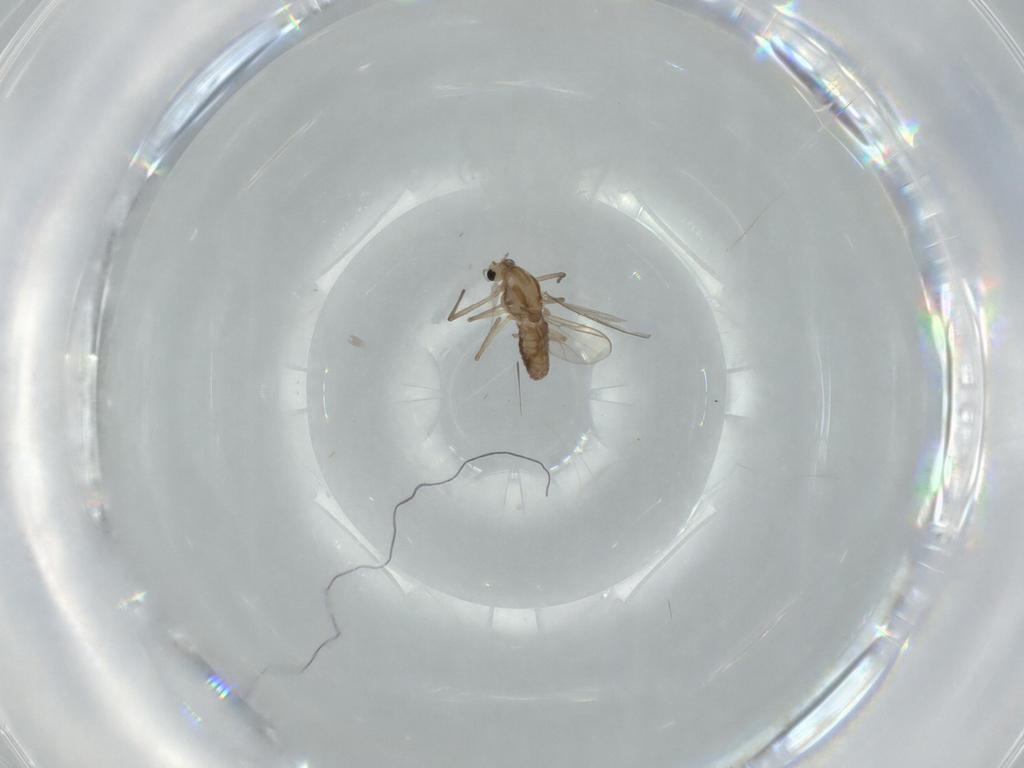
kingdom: Animalia
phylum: Arthropoda
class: Insecta
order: Diptera
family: Chironomidae
